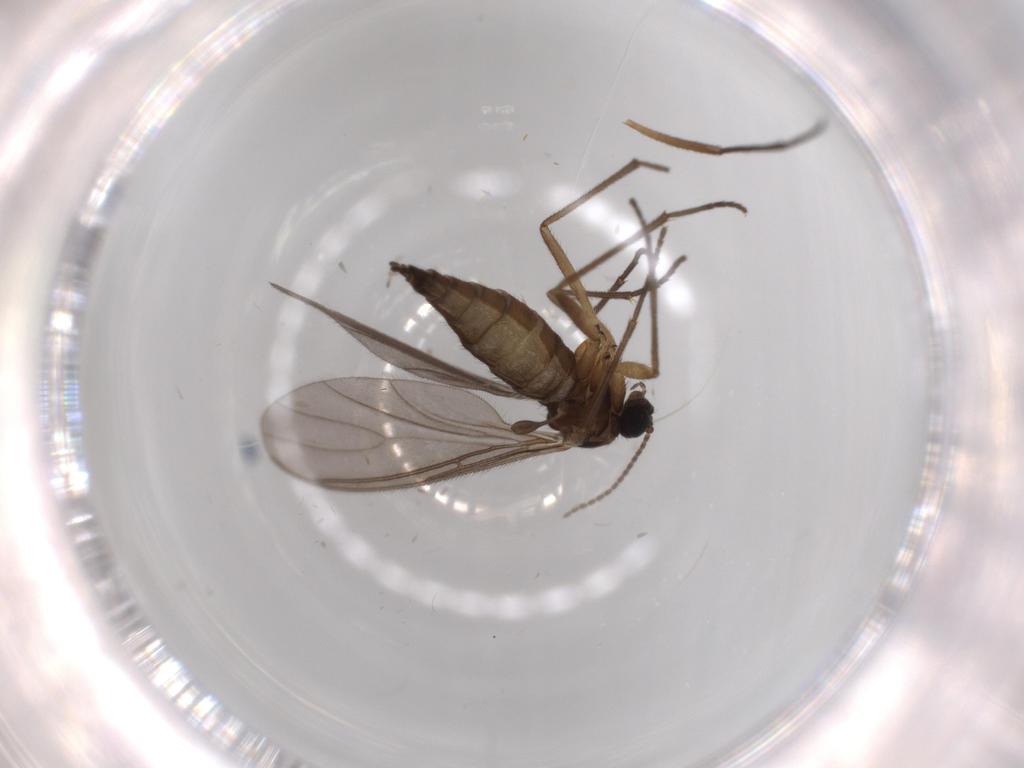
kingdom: Animalia
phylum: Arthropoda
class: Insecta
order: Diptera
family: Sciaridae
